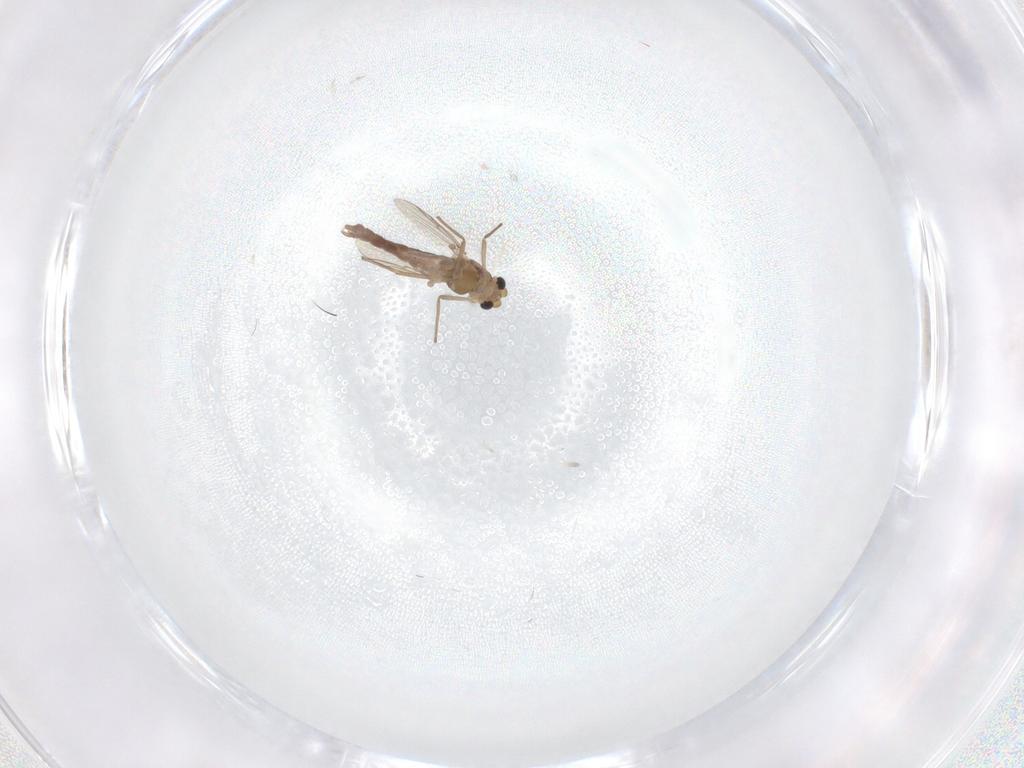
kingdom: Animalia
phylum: Arthropoda
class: Insecta
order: Diptera
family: Chironomidae
